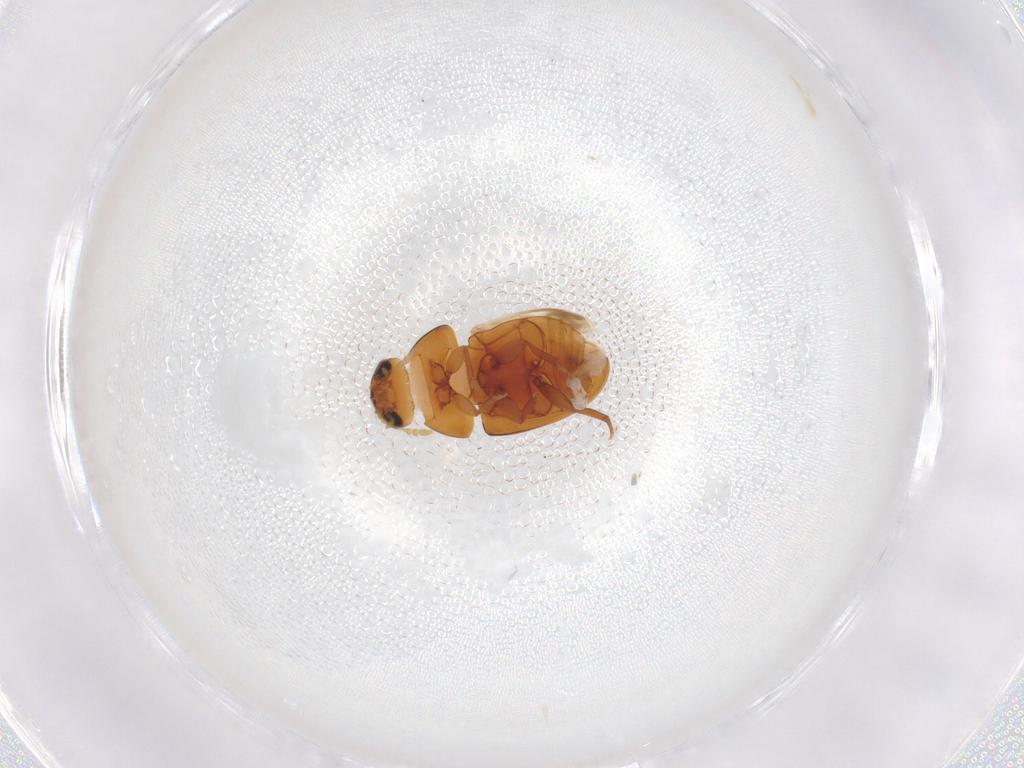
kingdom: Animalia
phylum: Arthropoda
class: Insecta
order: Coleoptera
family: Phalacridae
